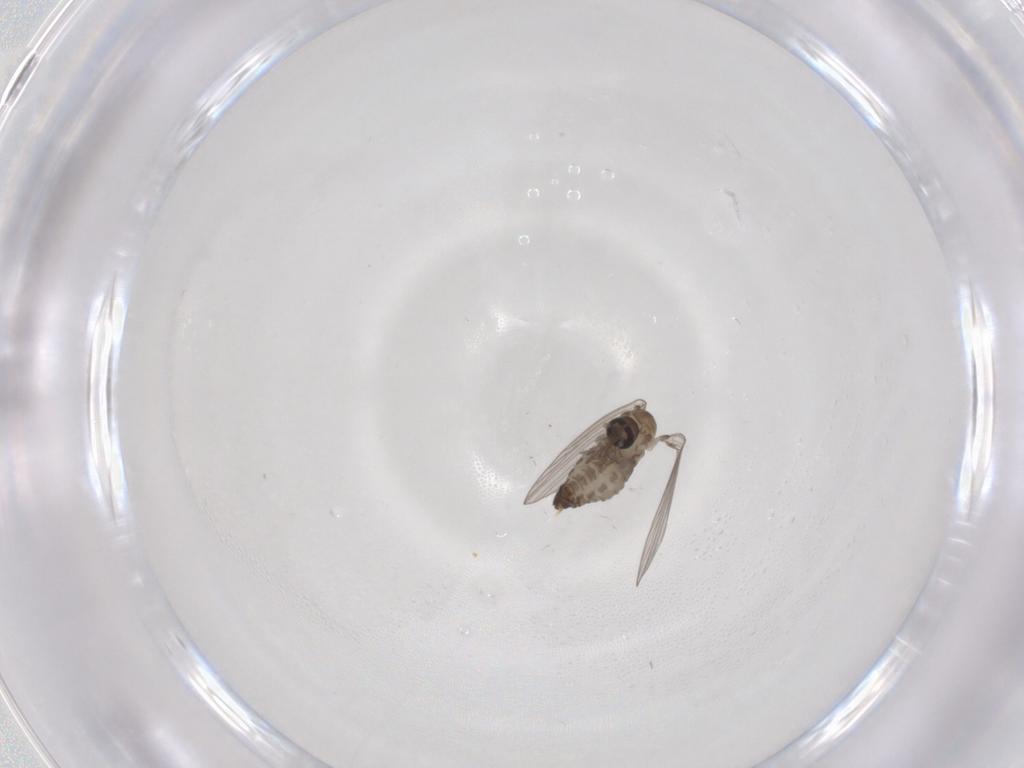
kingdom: Animalia
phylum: Arthropoda
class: Insecta
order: Diptera
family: Psychodidae
